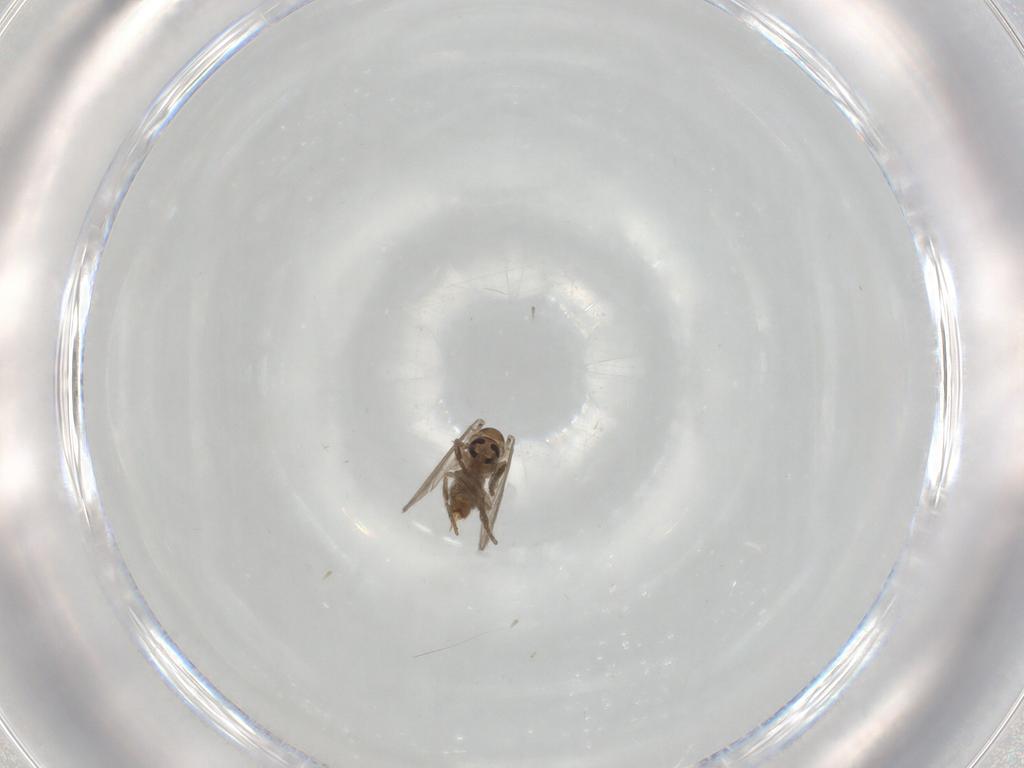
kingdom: Animalia
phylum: Arthropoda
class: Insecta
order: Diptera
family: Psychodidae
